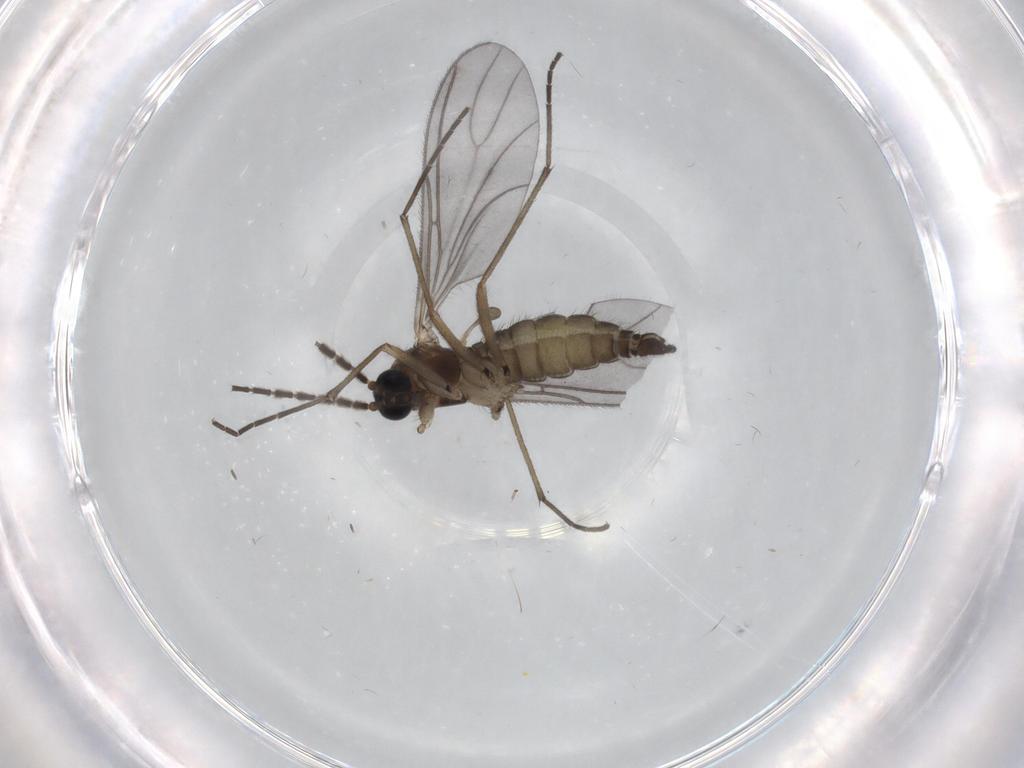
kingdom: Animalia
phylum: Arthropoda
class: Insecta
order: Diptera
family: Sciaridae
